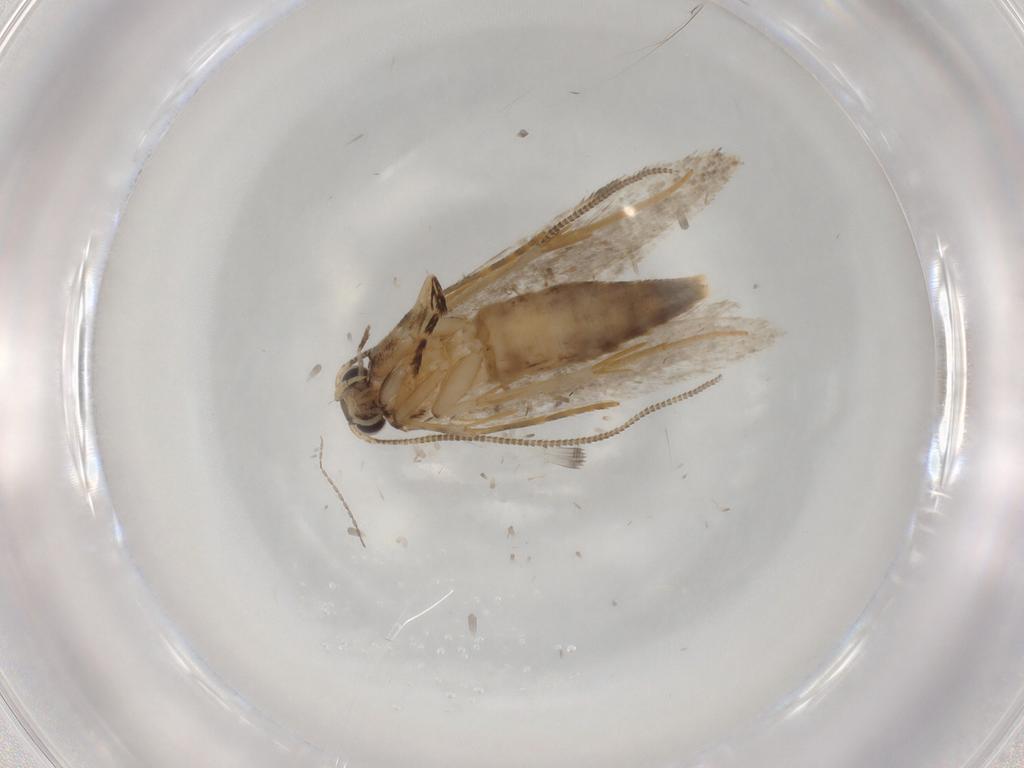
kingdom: Animalia
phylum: Arthropoda
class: Insecta
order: Lepidoptera
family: Tineidae
